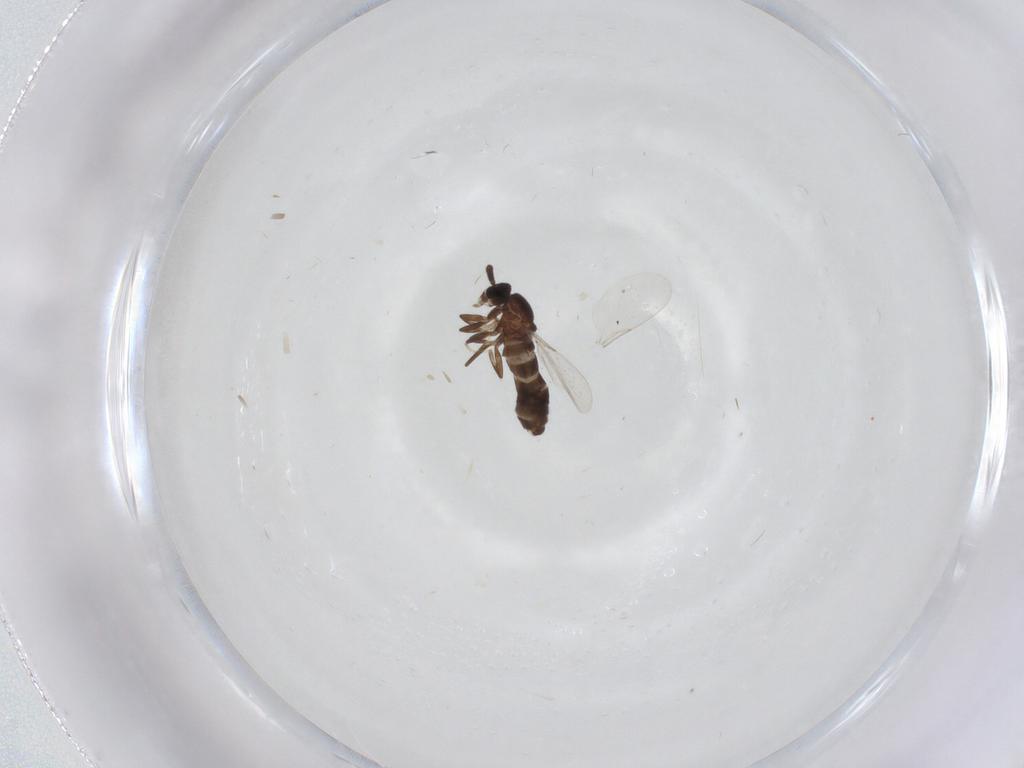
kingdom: Animalia
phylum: Arthropoda
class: Insecta
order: Diptera
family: Scatopsidae
